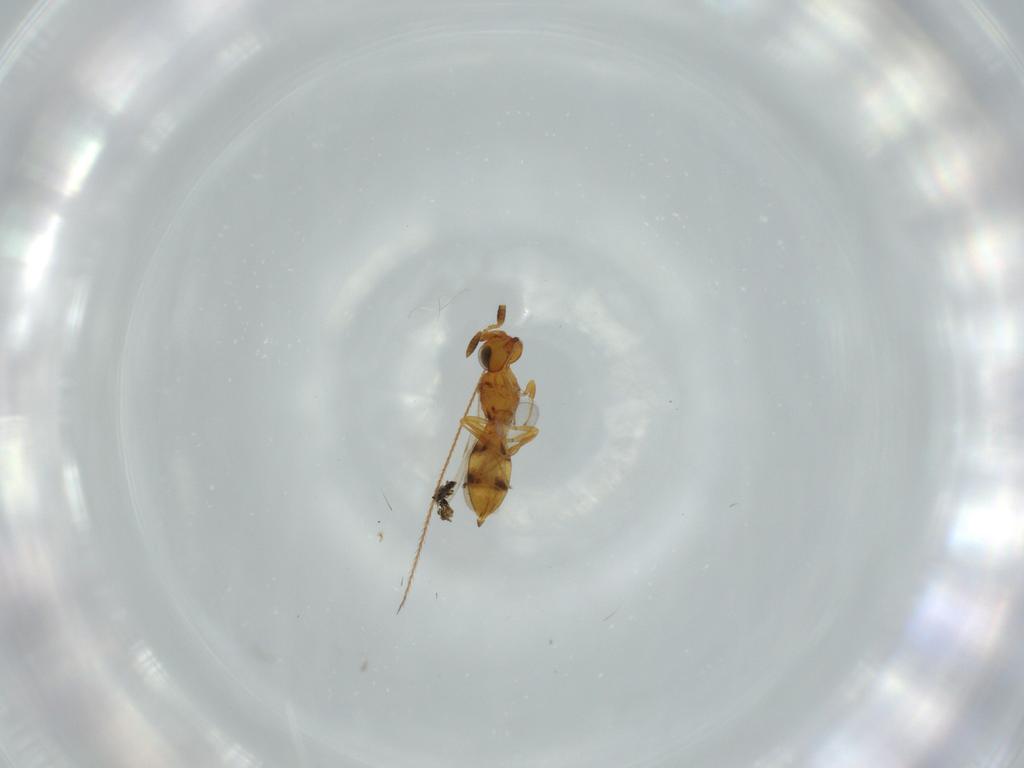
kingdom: Animalia
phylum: Arthropoda
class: Insecta
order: Hymenoptera
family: Scelionidae
